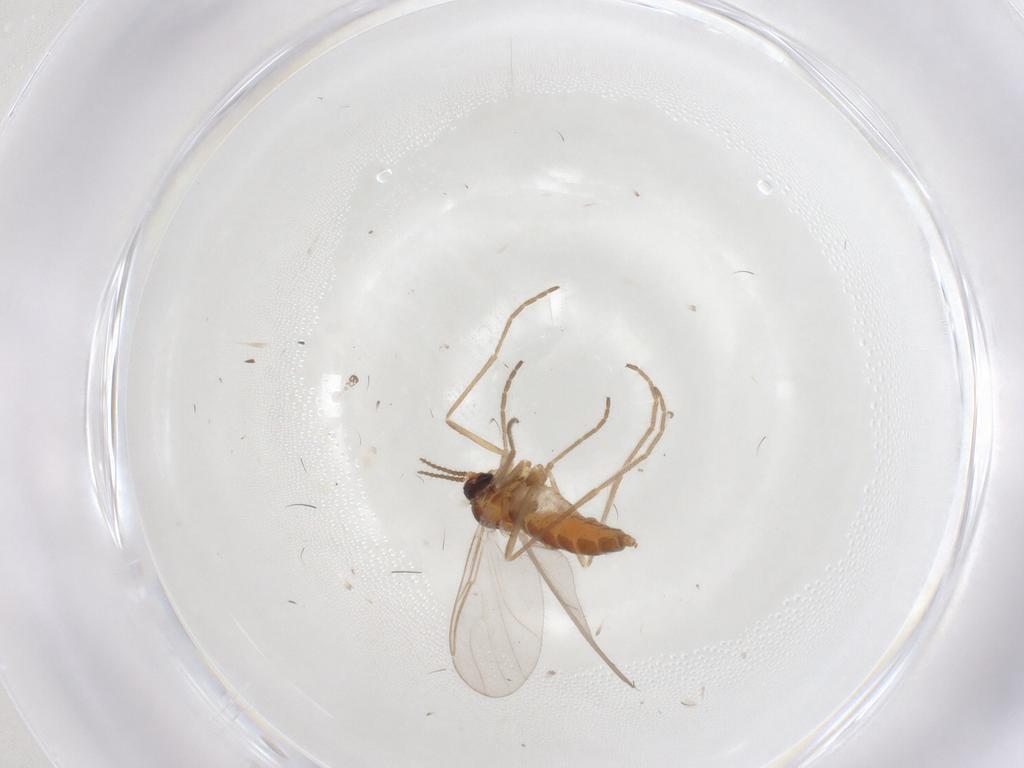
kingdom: Animalia
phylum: Arthropoda
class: Insecta
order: Diptera
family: Cecidomyiidae
